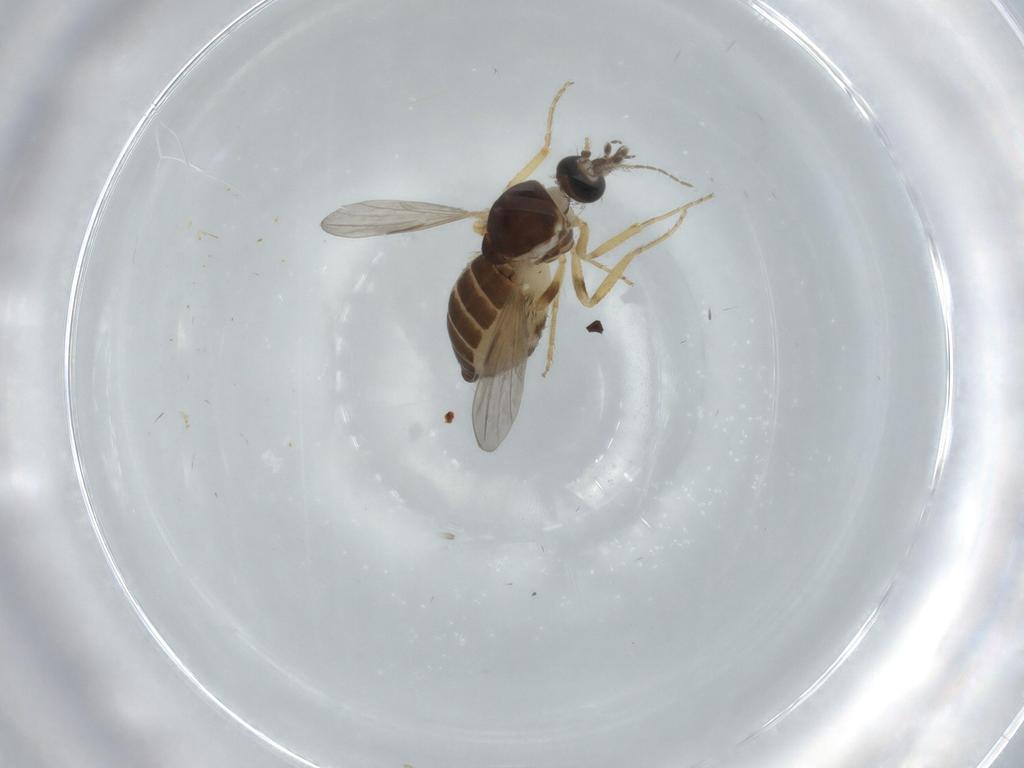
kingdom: Animalia
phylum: Arthropoda
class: Insecta
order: Diptera
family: Ceratopogonidae
